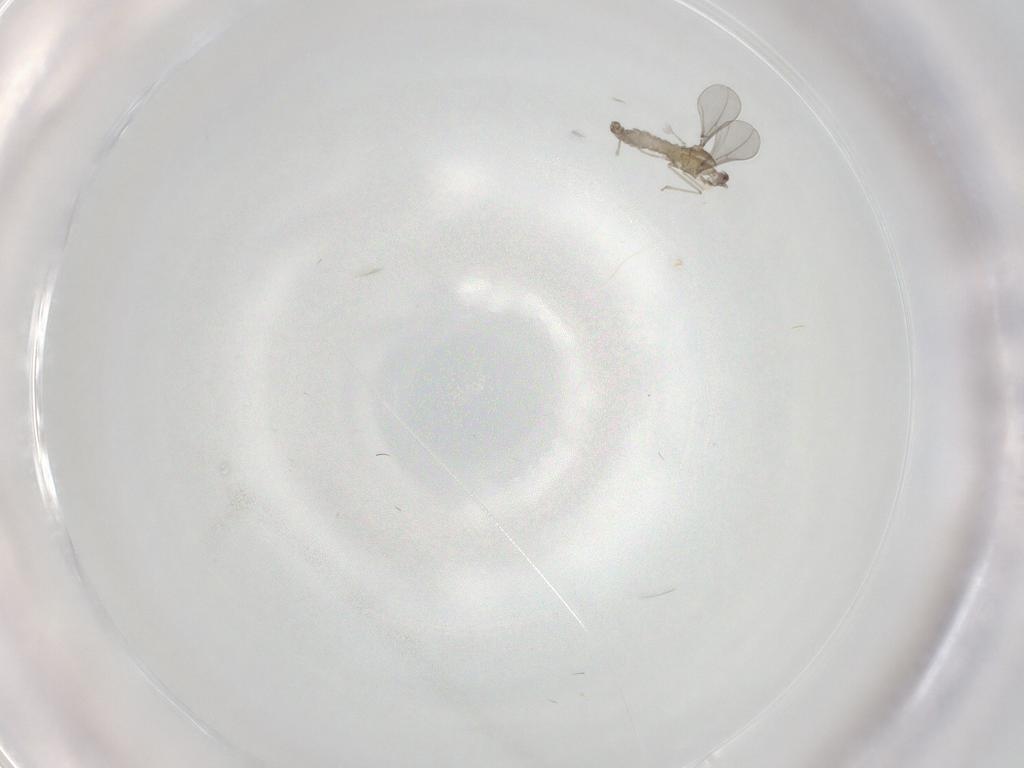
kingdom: Animalia
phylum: Arthropoda
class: Insecta
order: Diptera
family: Cecidomyiidae
